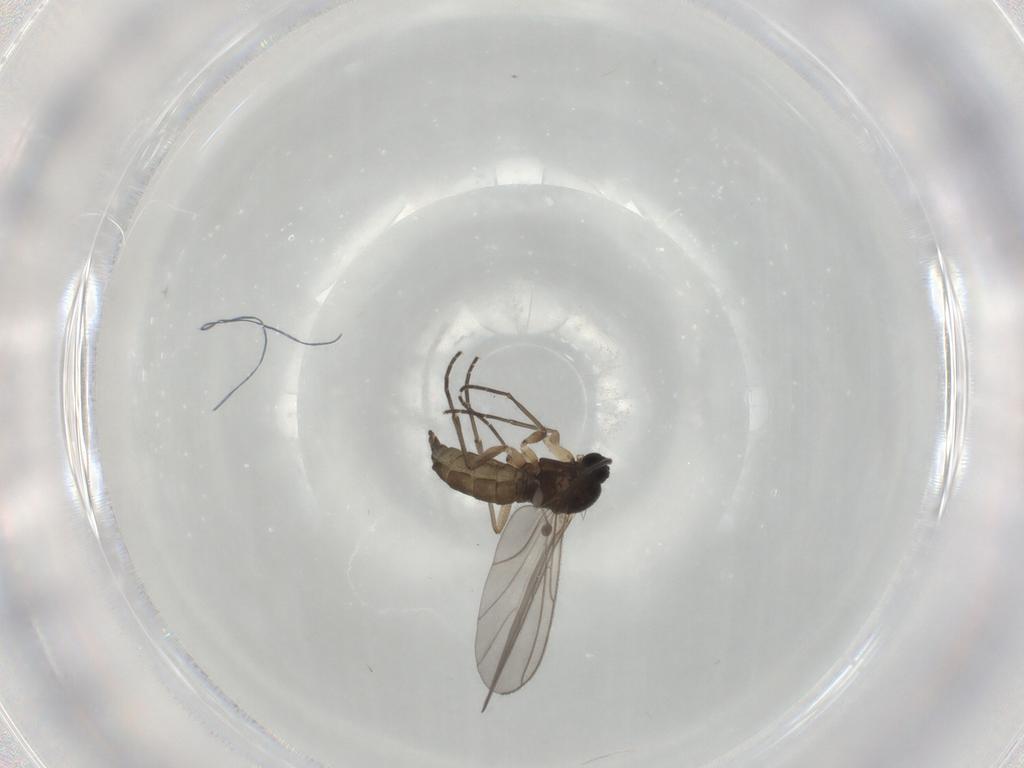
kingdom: Animalia
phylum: Arthropoda
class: Insecta
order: Diptera
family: Sciaridae
